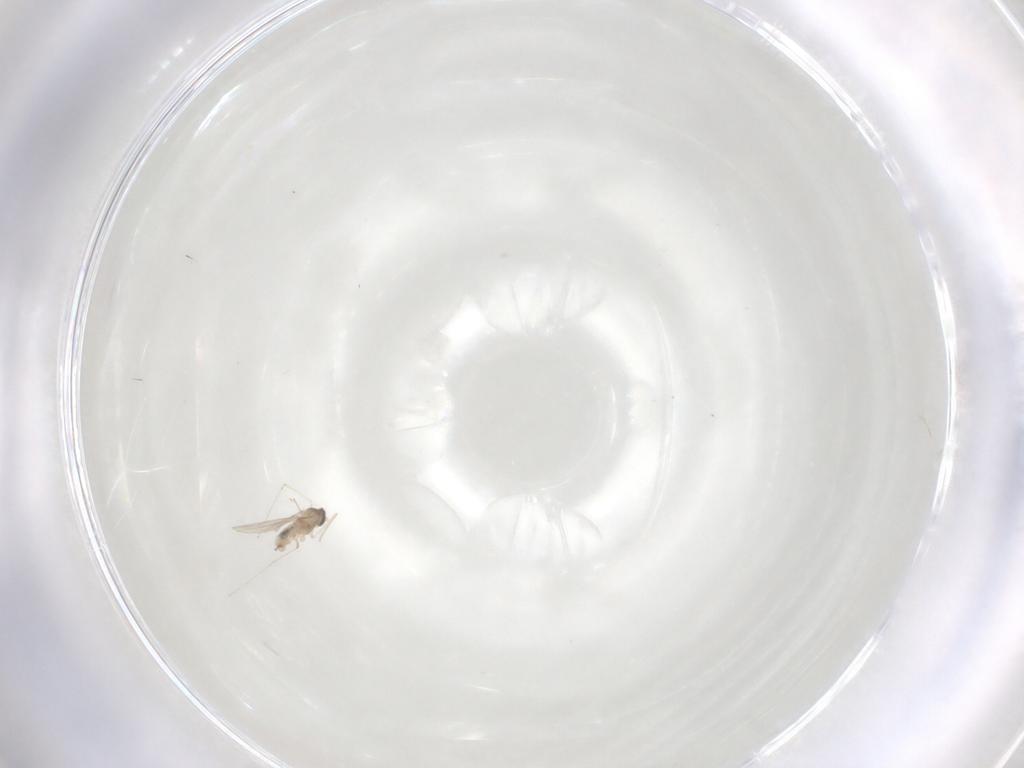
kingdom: Animalia
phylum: Arthropoda
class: Insecta
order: Diptera
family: Cecidomyiidae
